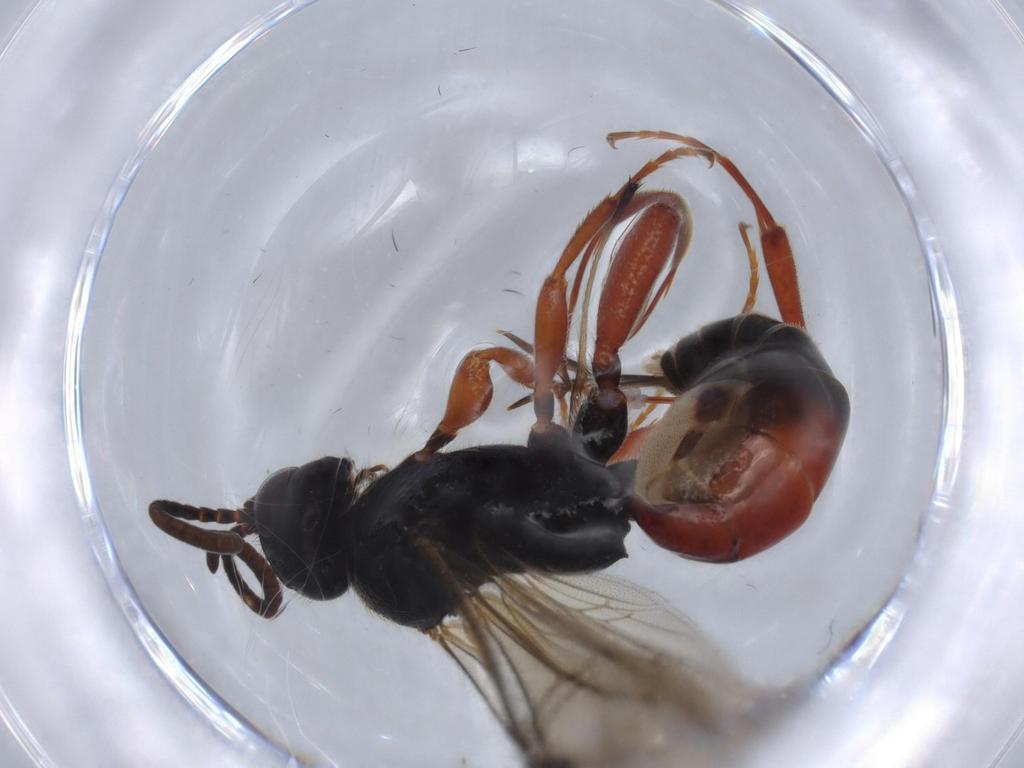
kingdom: Animalia
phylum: Arthropoda
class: Insecta
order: Hymenoptera
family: Ichneumonidae
